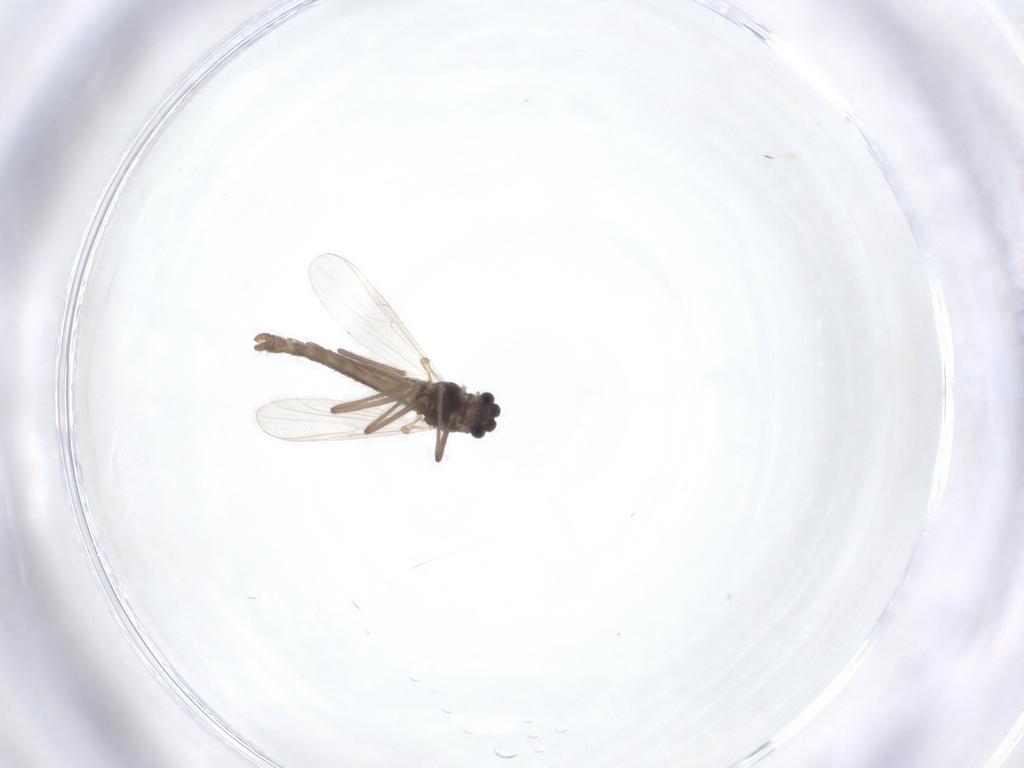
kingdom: Animalia
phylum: Arthropoda
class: Insecta
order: Diptera
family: Chironomidae
